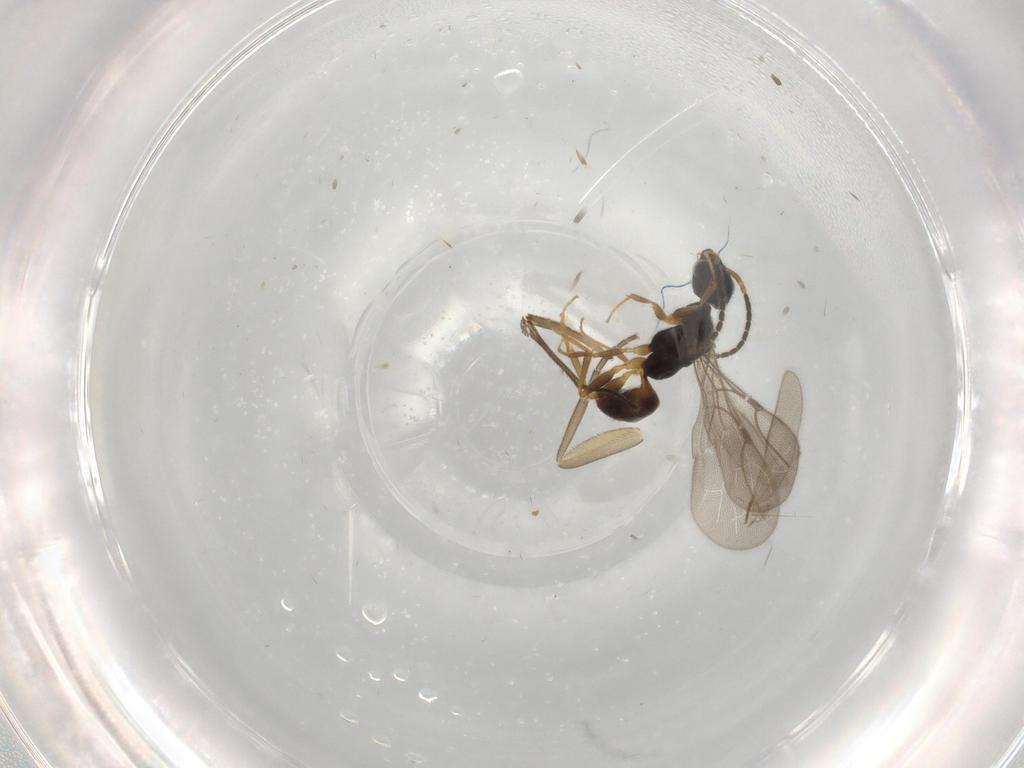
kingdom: Animalia
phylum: Arthropoda
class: Insecta
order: Hymenoptera
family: Bethylidae
